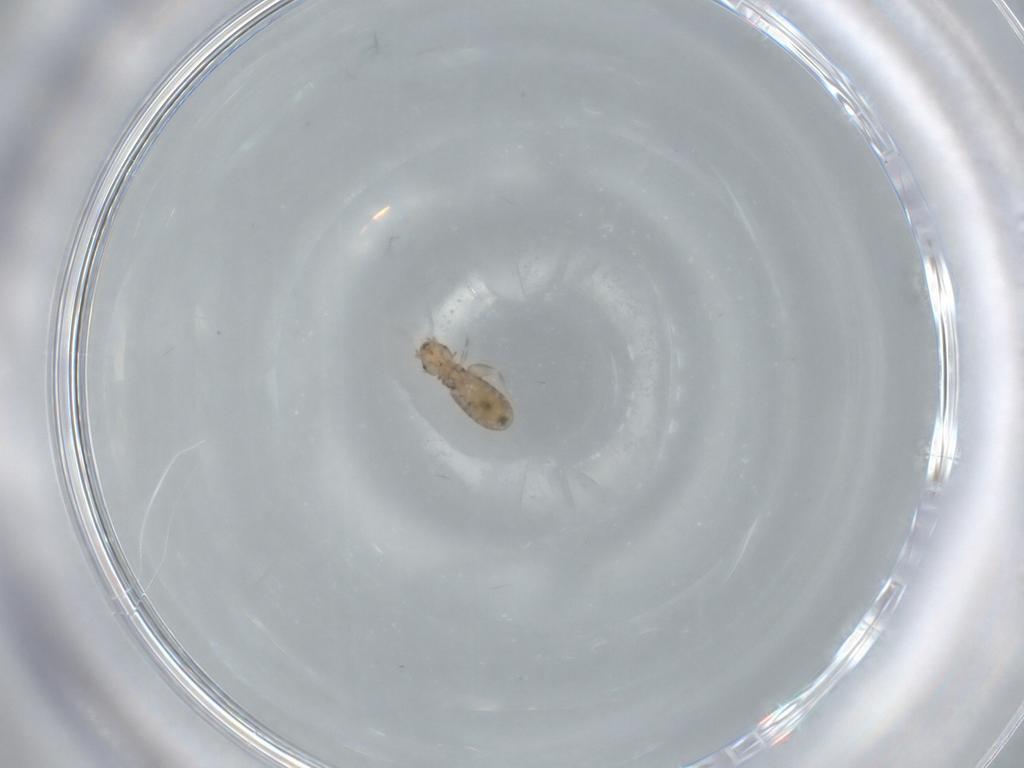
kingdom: Animalia
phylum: Arthropoda
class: Insecta
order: Psocodea
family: Liposcelididae
